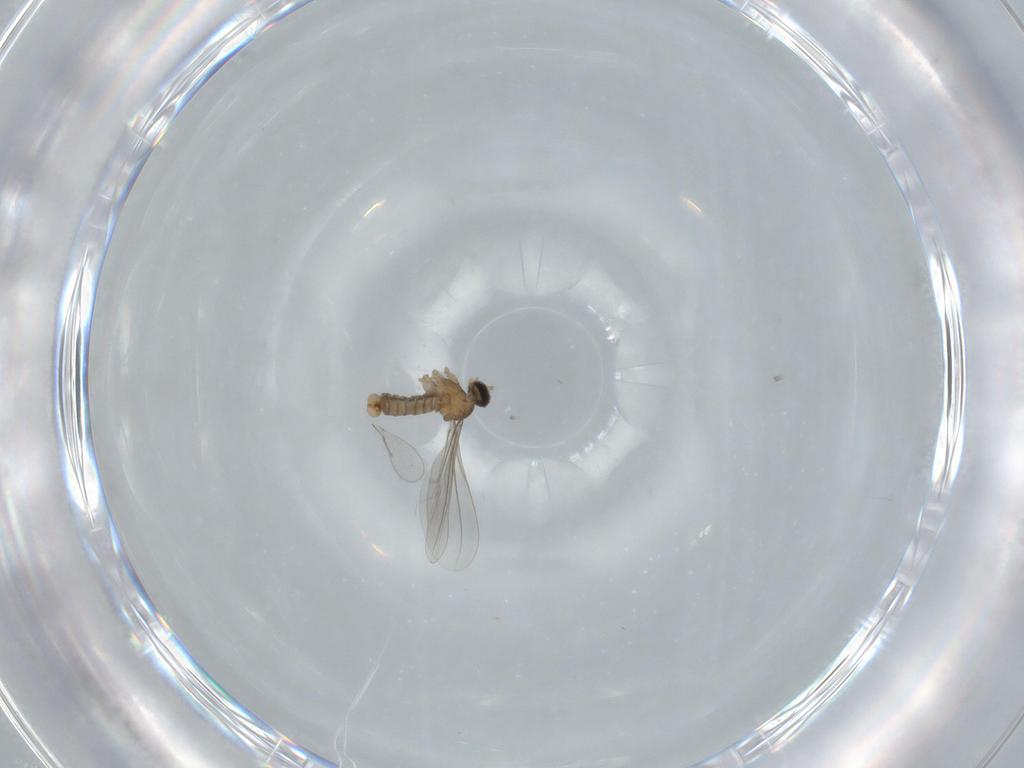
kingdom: Animalia
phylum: Arthropoda
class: Insecta
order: Diptera
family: Cecidomyiidae
